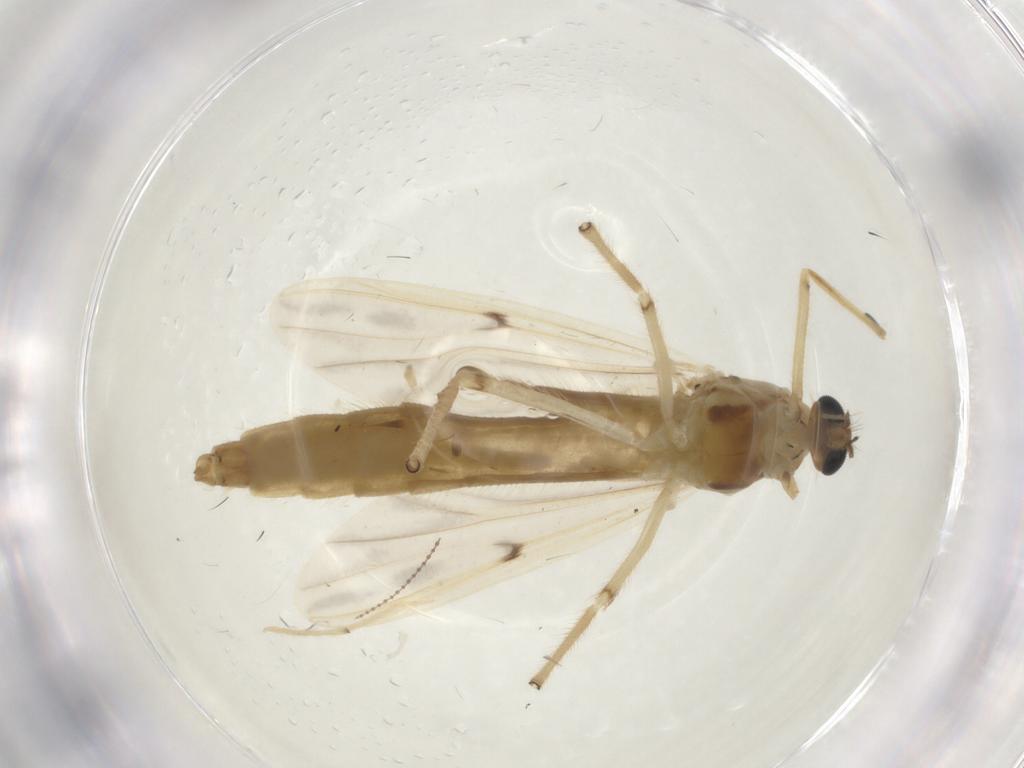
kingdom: Animalia
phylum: Arthropoda
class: Insecta
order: Diptera
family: Chironomidae
